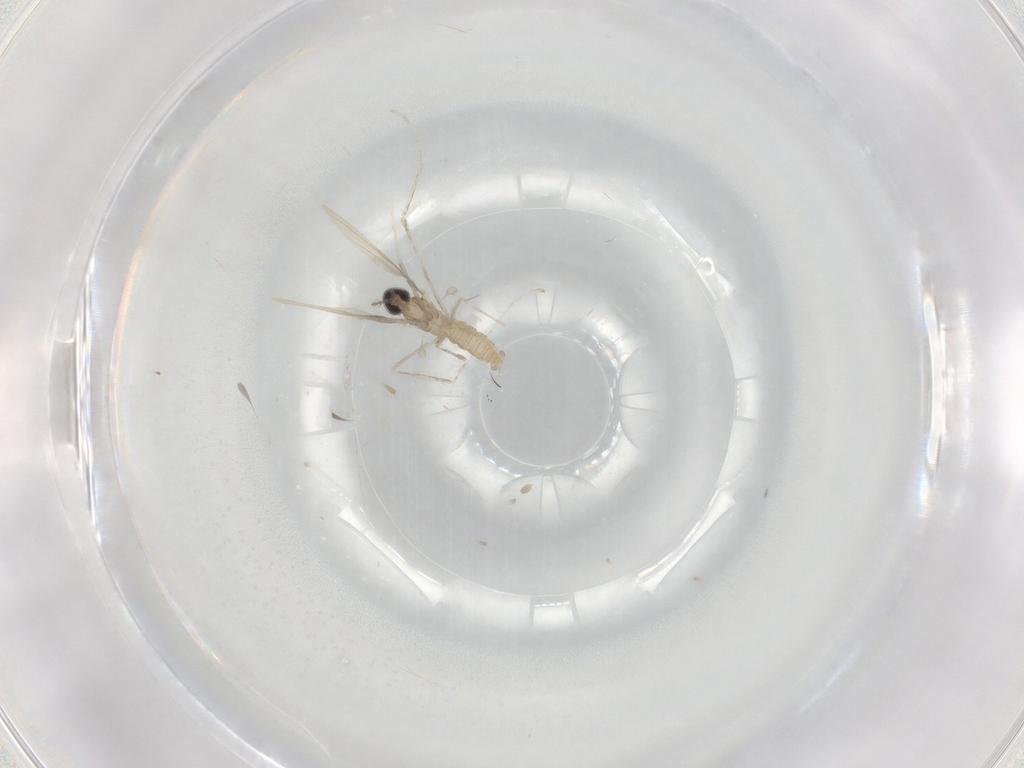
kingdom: Animalia
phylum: Arthropoda
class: Insecta
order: Diptera
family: Cecidomyiidae
